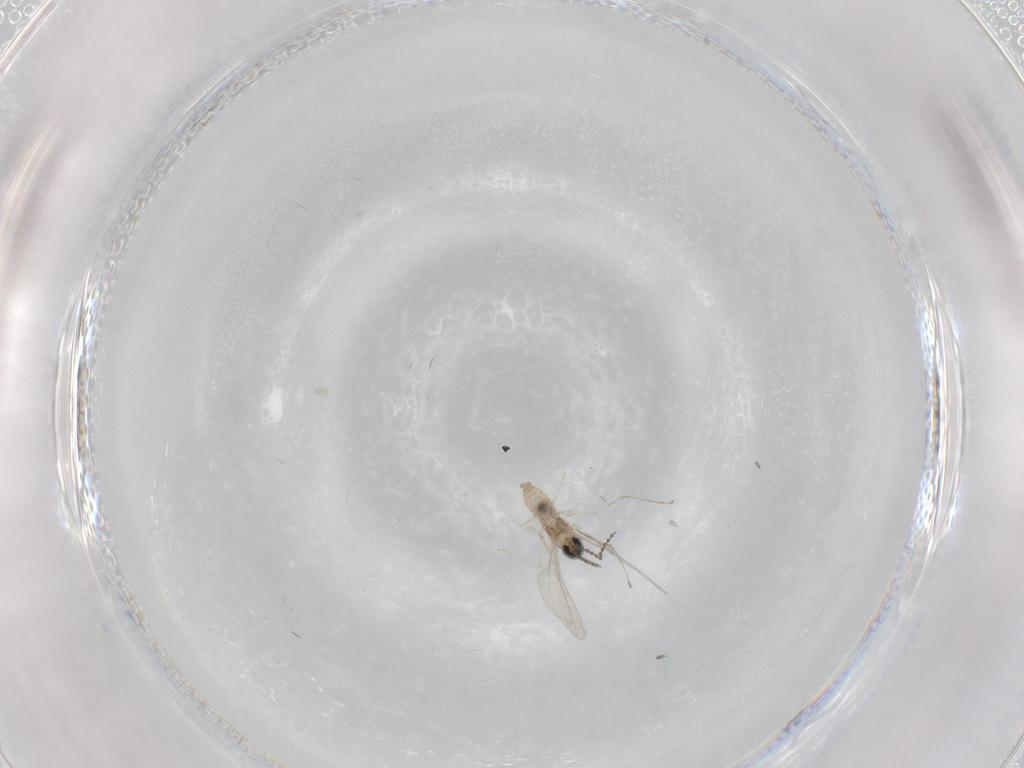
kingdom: Animalia
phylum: Arthropoda
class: Insecta
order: Diptera
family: Cecidomyiidae
